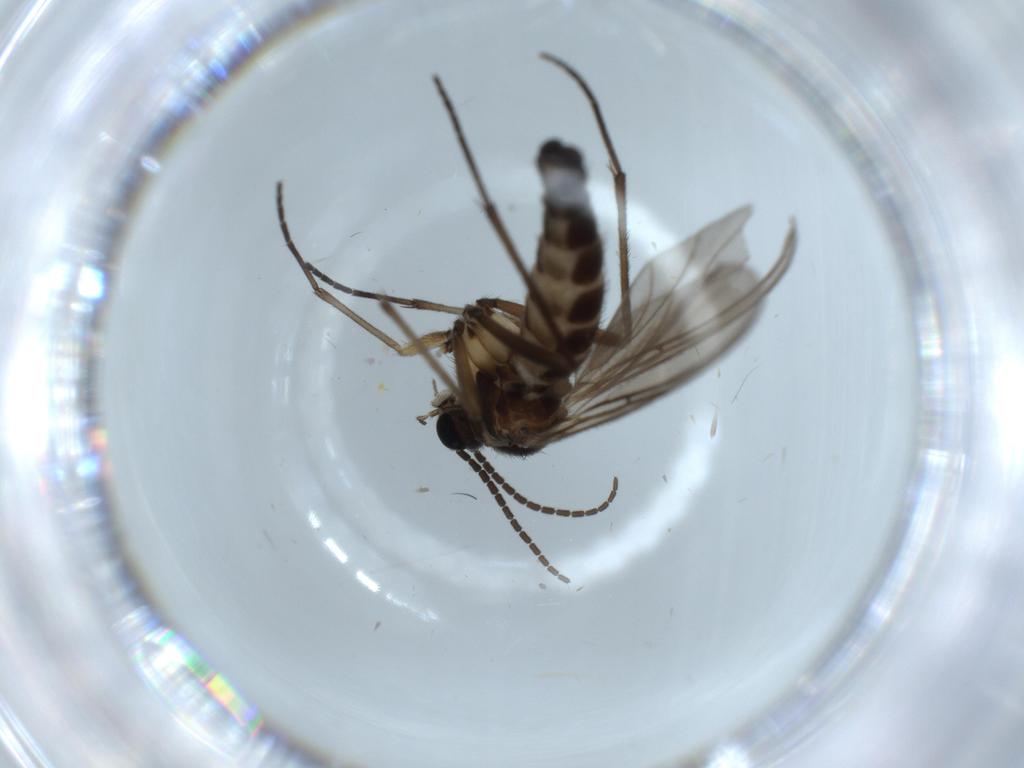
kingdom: Animalia
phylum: Arthropoda
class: Insecta
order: Diptera
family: Sciaridae
